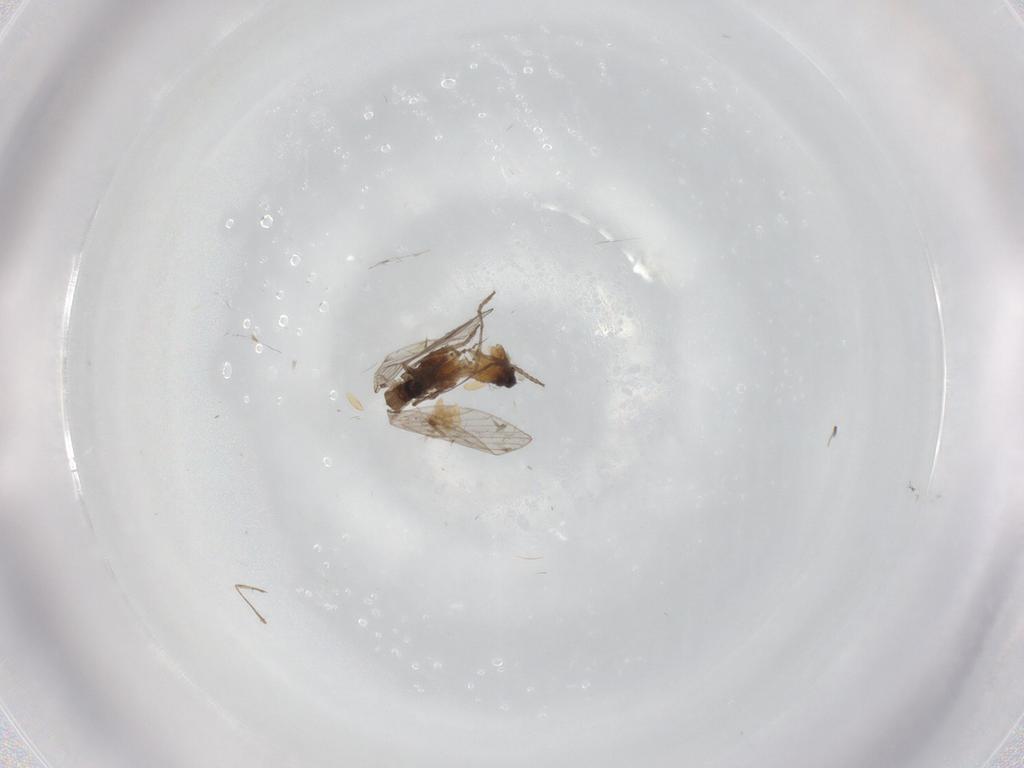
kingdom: Animalia
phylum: Arthropoda
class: Insecta
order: Diptera
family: Psychodidae
